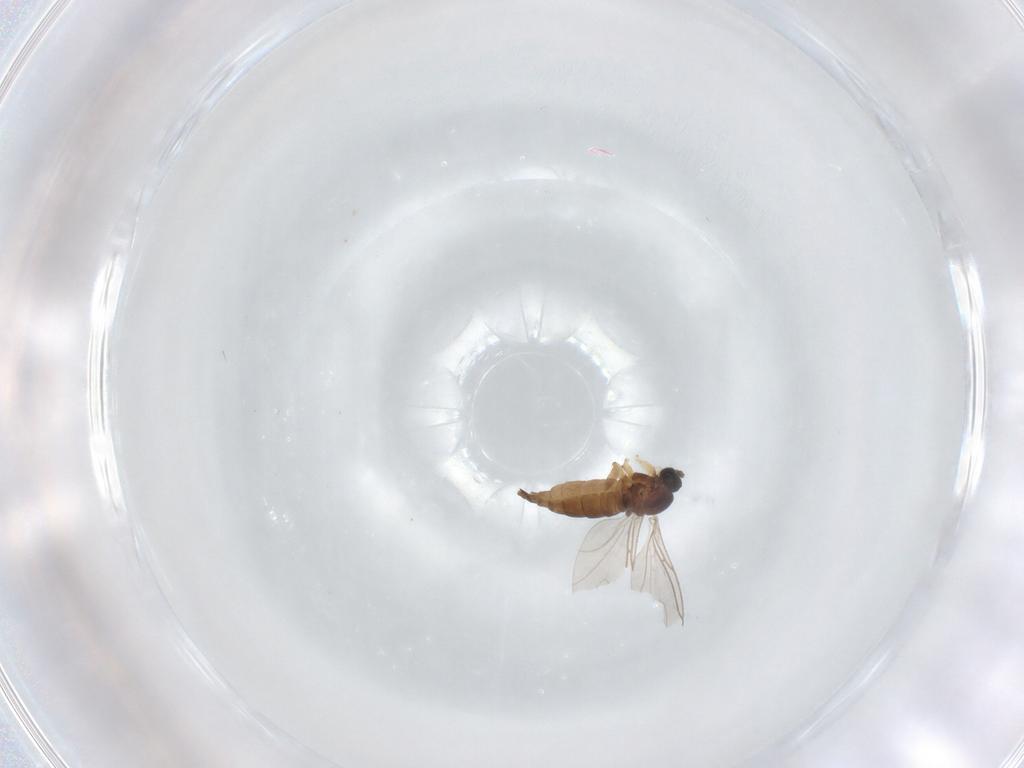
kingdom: Animalia
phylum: Arthropoda
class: Insecta
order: Diptera
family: Sciaridae
